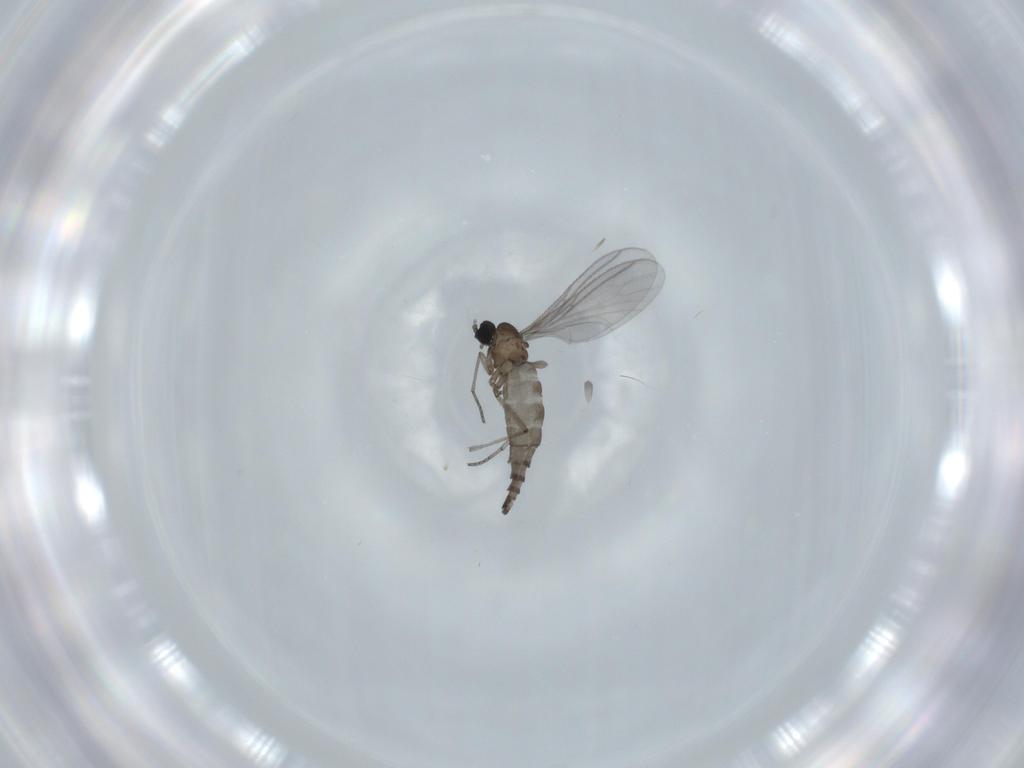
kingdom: Animalia
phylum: Arthropoda
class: Insecta
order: Diptera
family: Sciaridae
